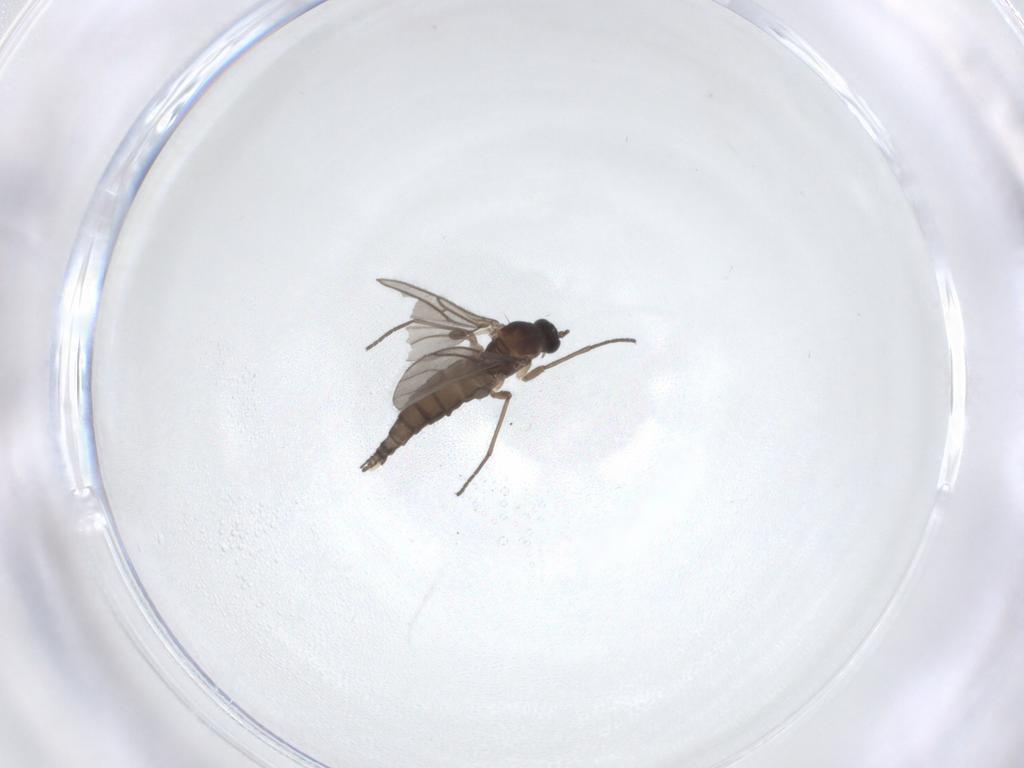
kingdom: Animalia
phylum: Arthropoda
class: Insecta
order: Diptera
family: Sciaridae
